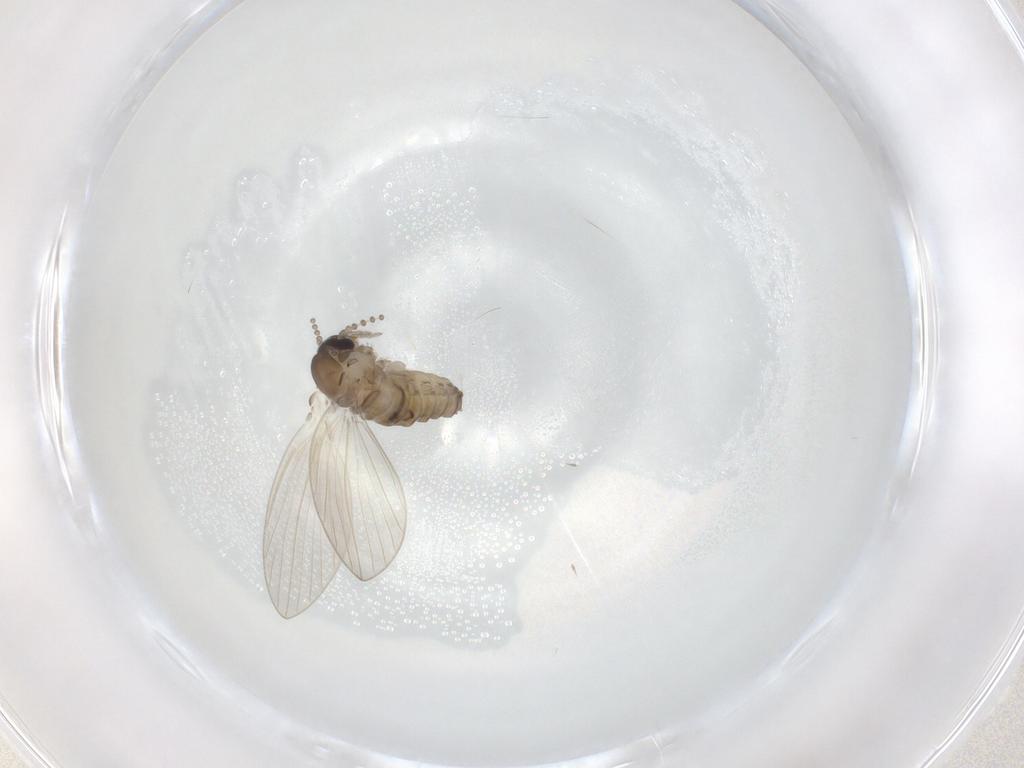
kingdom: Animalia
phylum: Arthropoda
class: Insecta
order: Diptera
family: Psychodidae
